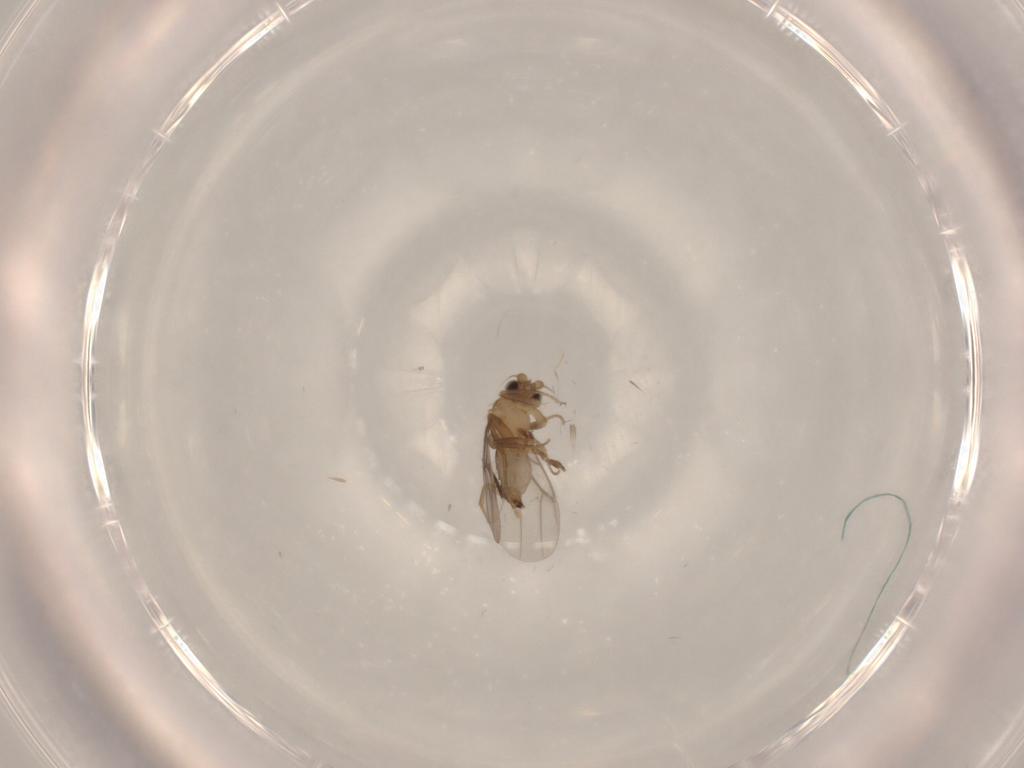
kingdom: Animalia
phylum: Arthropoda
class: Insecta
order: Diptera
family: Cecidomyiidae
